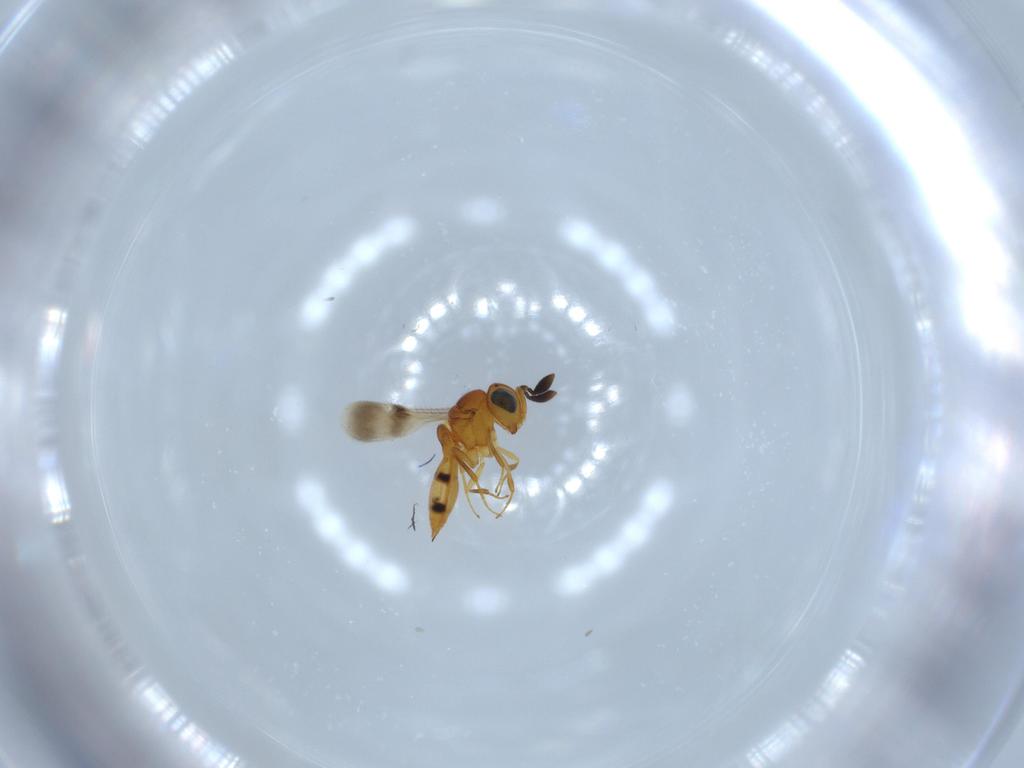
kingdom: Animalia
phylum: Arthropoda
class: Insecta
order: Hymenoptera
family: Scelionidae
